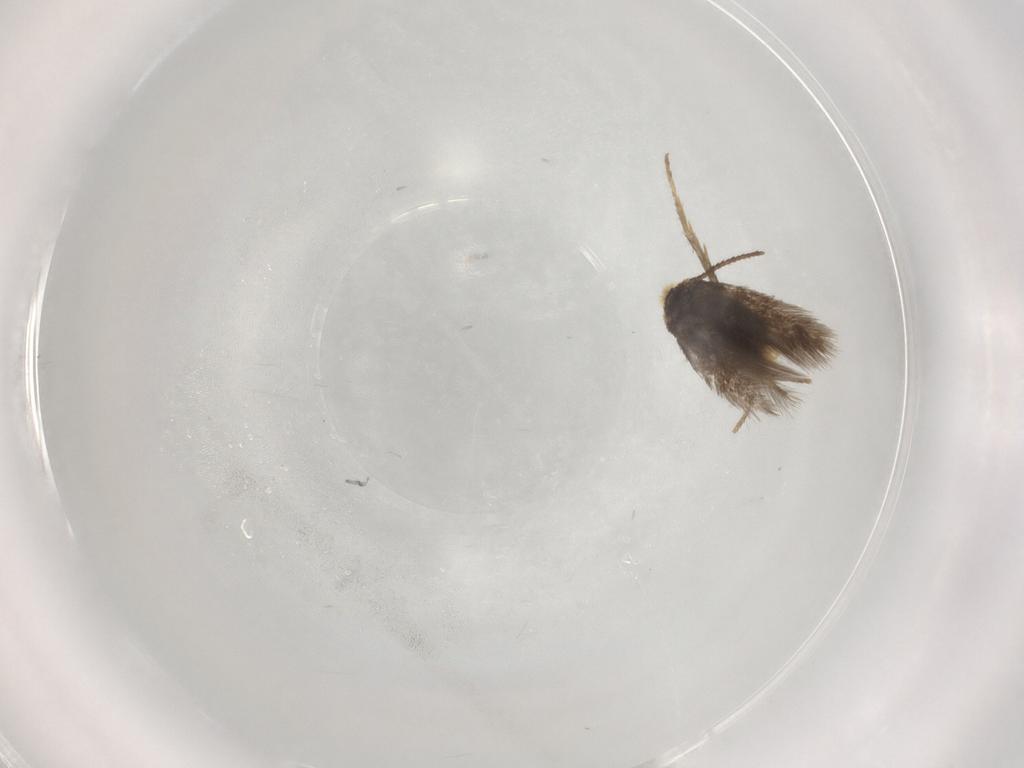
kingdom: Animalia
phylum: Arthropoda
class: Insecta
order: Lepidoptera
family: Nepticulidae
